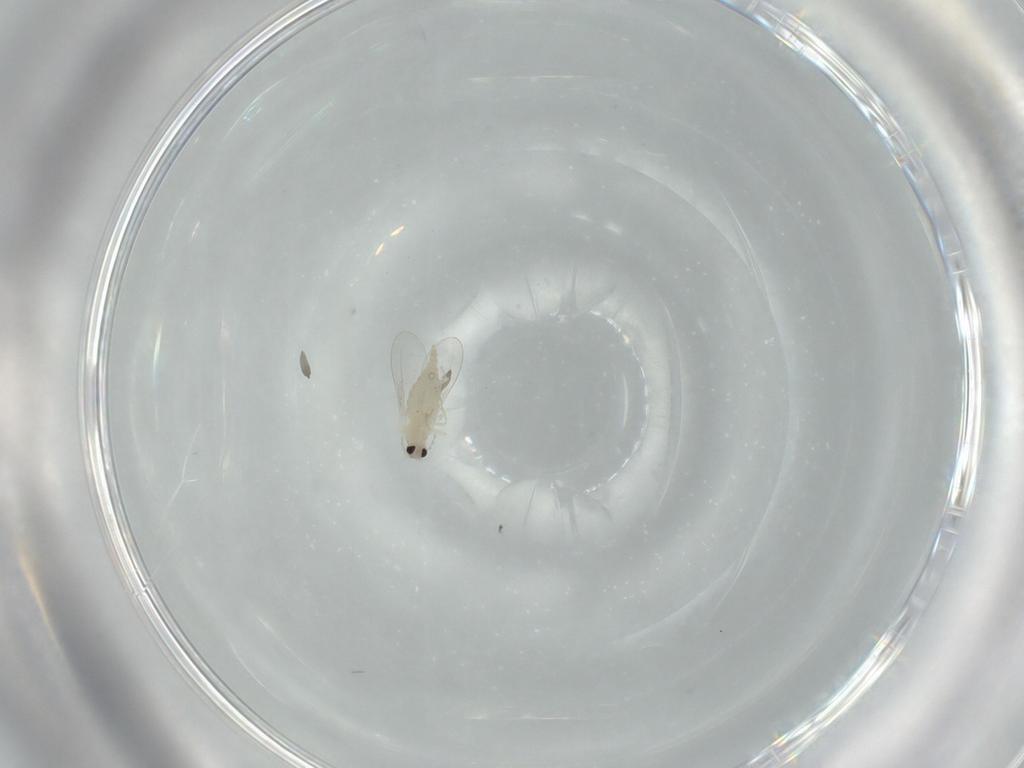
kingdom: Animalia
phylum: Arthropoda
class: Insecta
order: Diptera
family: Cecidomyiidae
